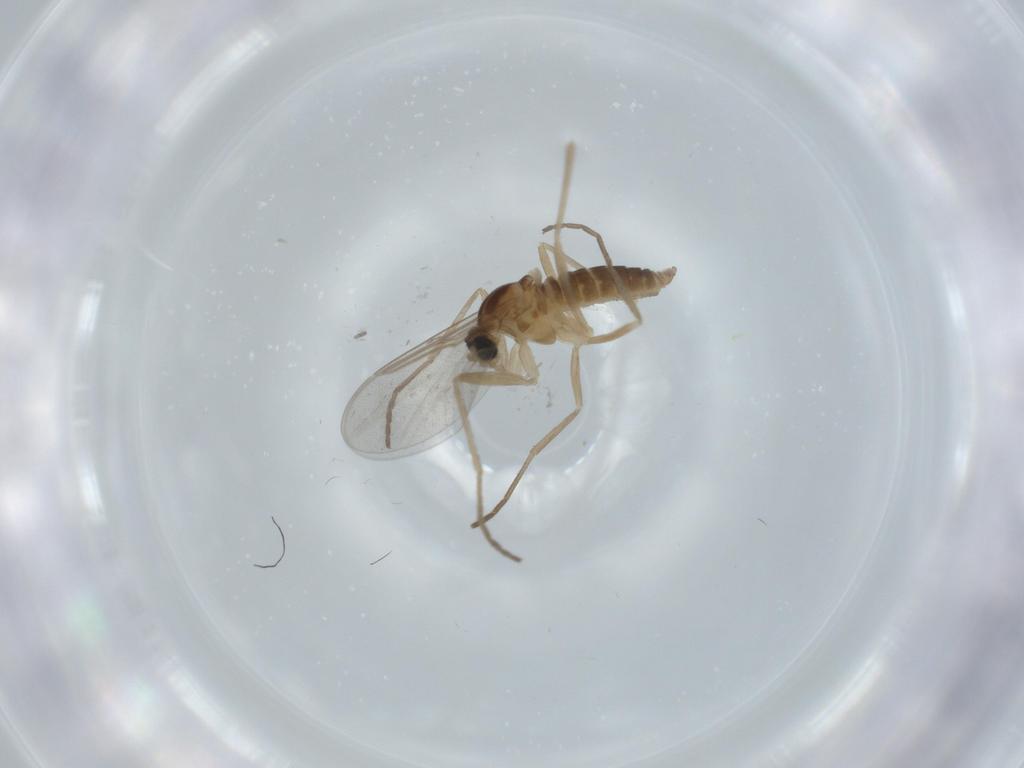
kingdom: Animalia
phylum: Arthropoda
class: Insecta
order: Diptera
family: Cecidomyiidae
